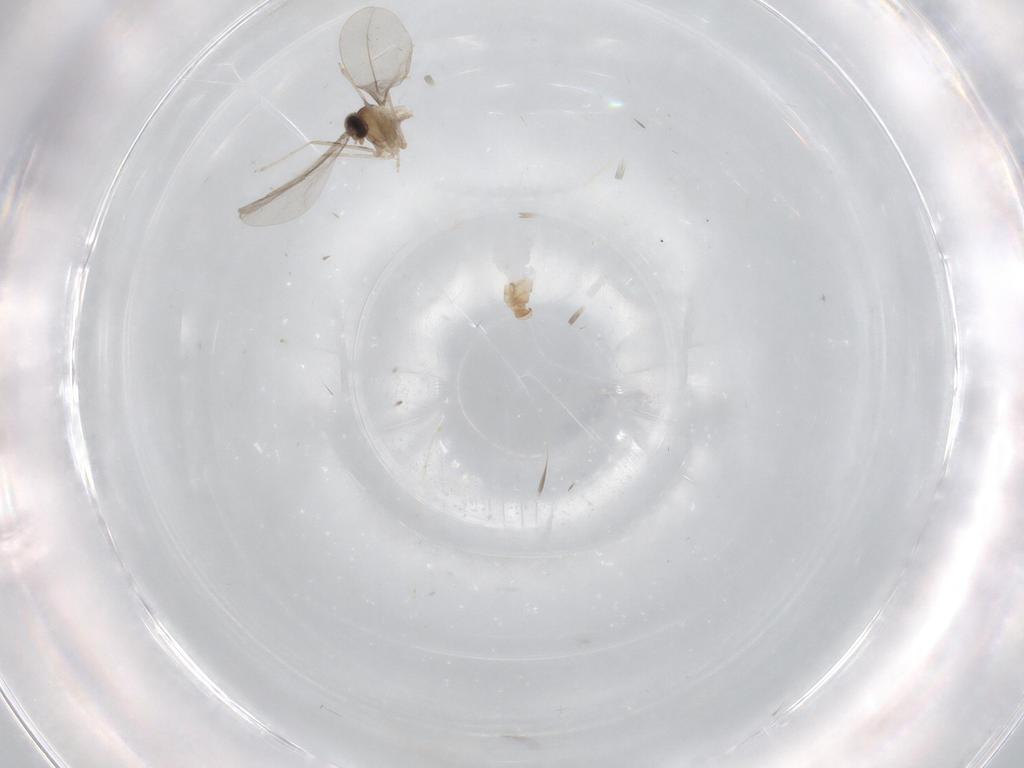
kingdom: Animalia
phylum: Arthropoda
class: Insecta
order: Diptera
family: Cecidomyiidae
